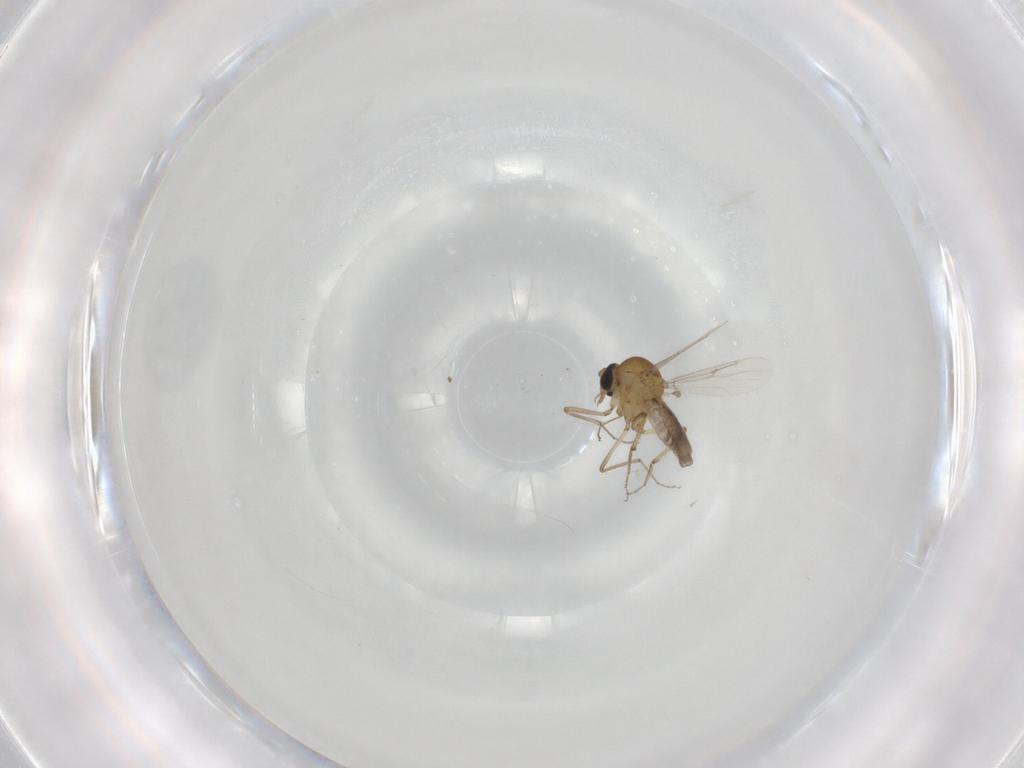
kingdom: Animalia
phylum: Arthropoda
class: Insecta
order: Diptera
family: Ceratopogonidae
